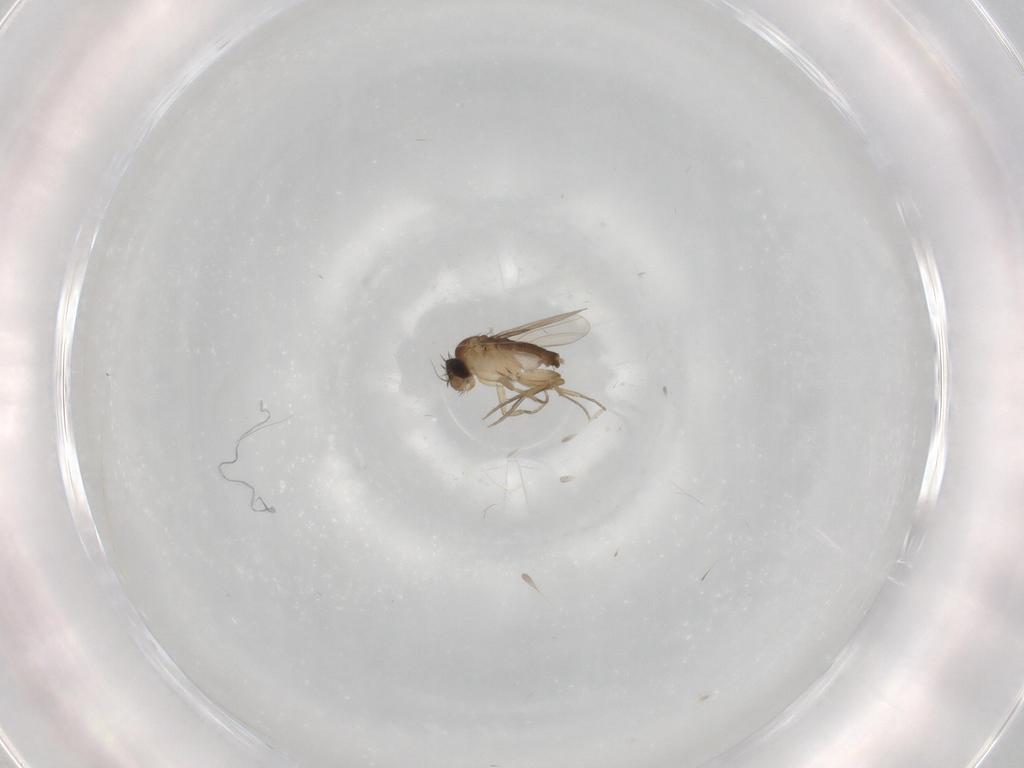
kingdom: Animalia
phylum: Arthropoda
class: Insecta
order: Diptera
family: Phoridae
